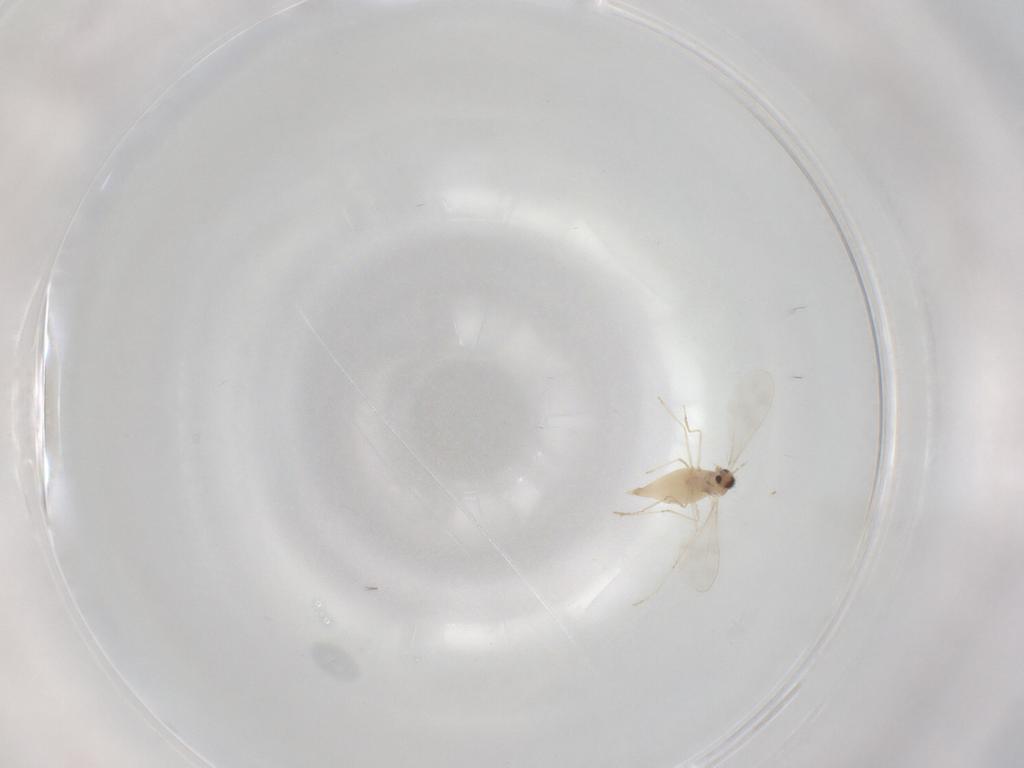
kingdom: Animalia
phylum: Arthropoda
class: Insecta
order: Diptera
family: Cecidomyiidae
